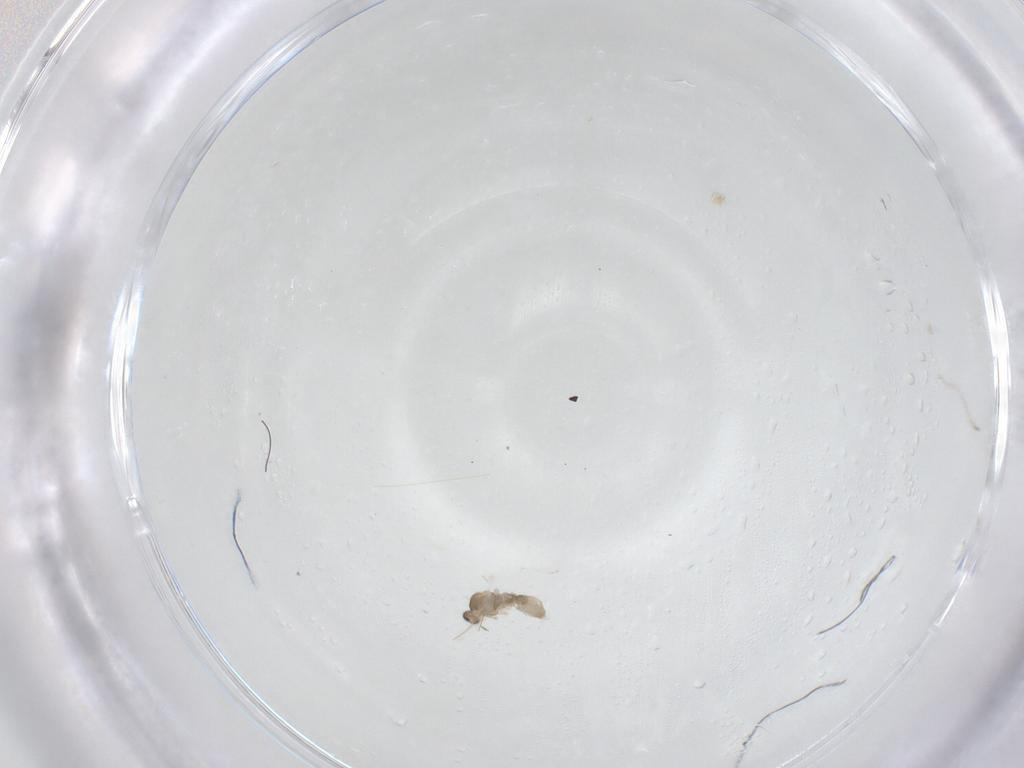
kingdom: Animalia
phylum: Arthropoda
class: Insecta
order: Diptera
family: Cecidomyiidae
